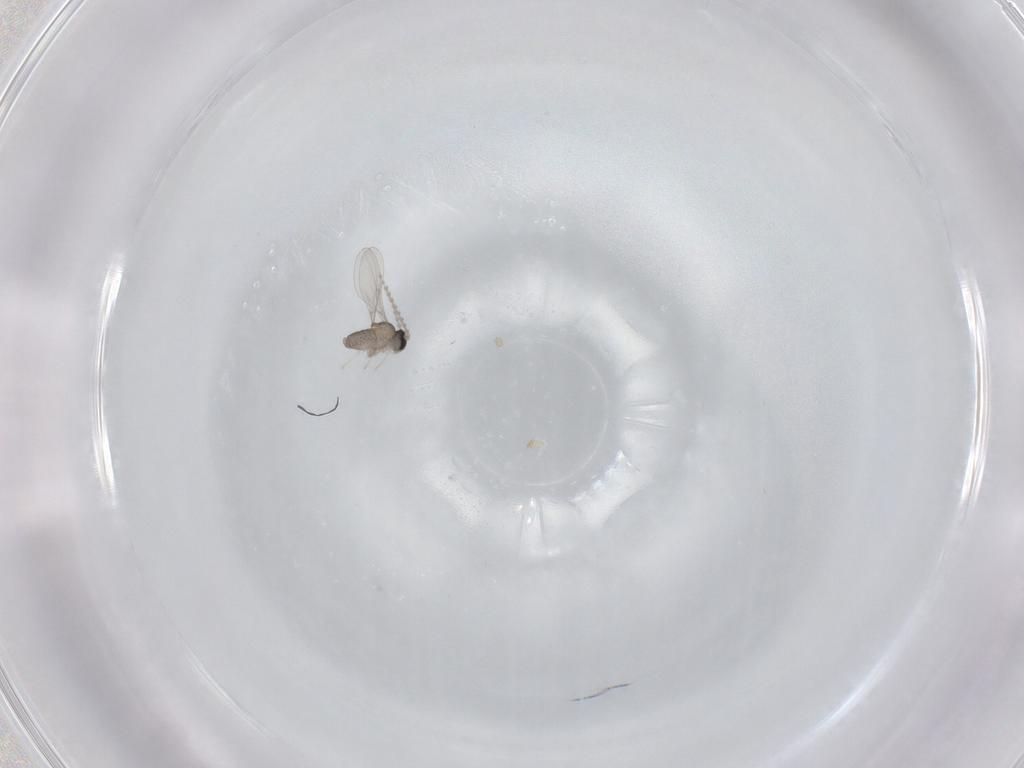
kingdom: Animalia
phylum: Arthropoda
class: Insecta
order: Diptera
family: Cecidomyiidae
